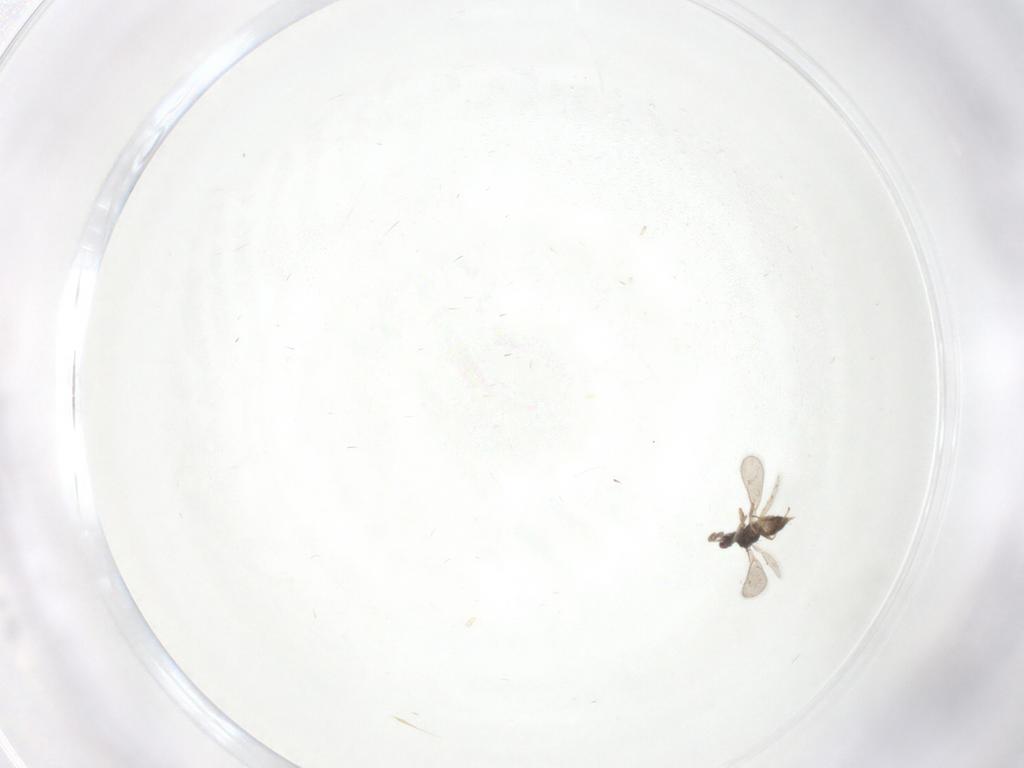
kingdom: Animalia
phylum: Arthropoda
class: Insecta
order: Hymenoptera
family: Eulophidae
